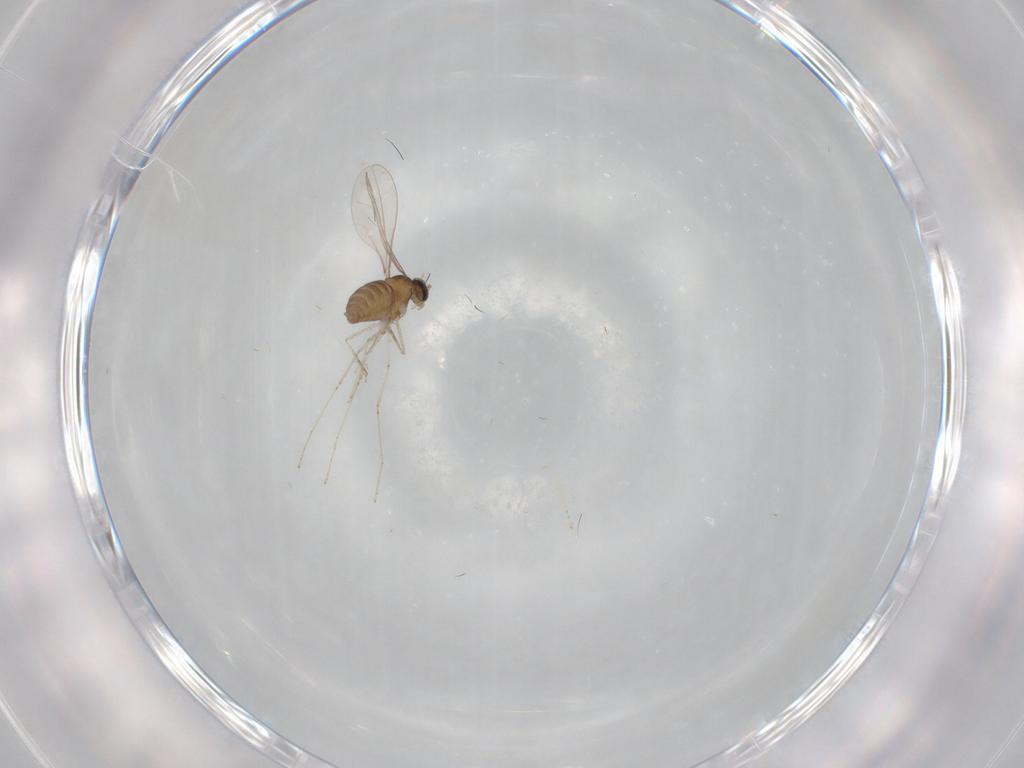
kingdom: Animalia
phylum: Arthropoda
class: Insecta
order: Diptera
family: Cecidomyiidae
